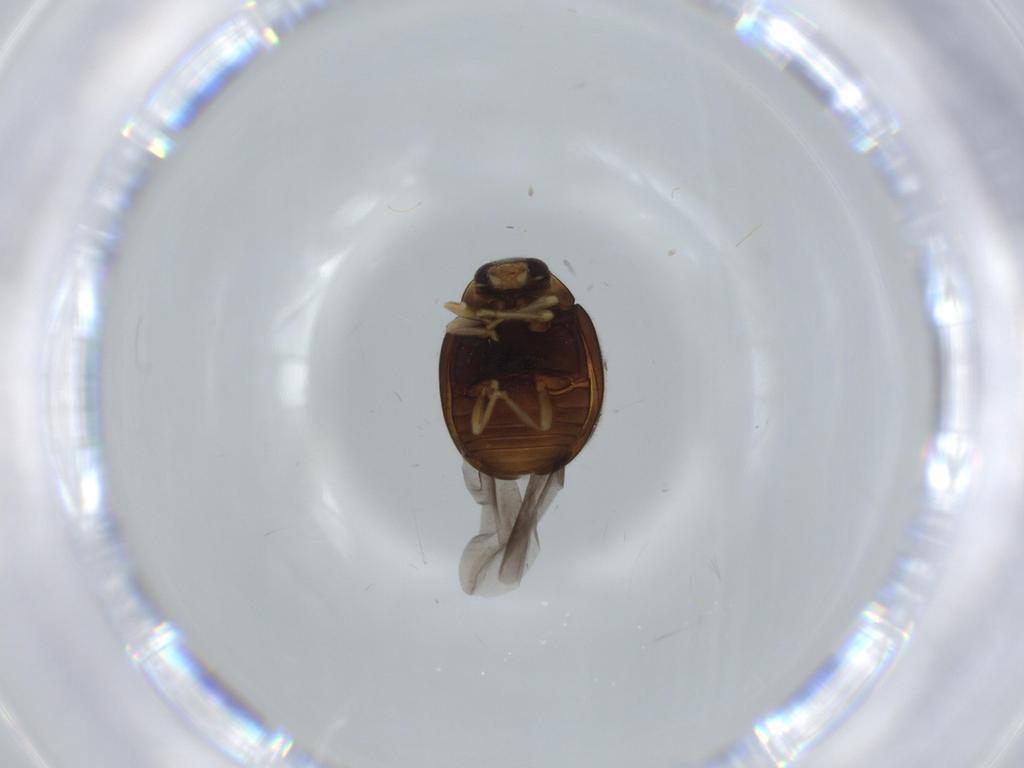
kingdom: Animalia
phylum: Arthropoda
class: Insecta
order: Coleoptera
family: Coccinellidae
